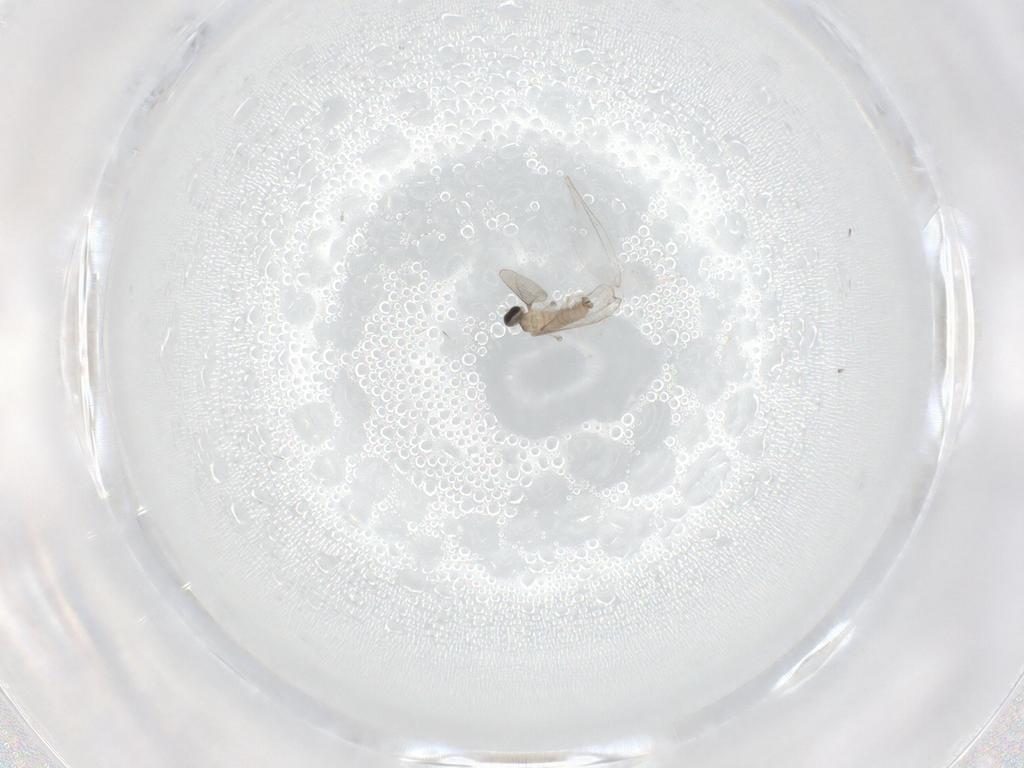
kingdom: Animalia
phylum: Arthropoda
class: Insecta
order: Diptera
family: Cecidomyiidae
